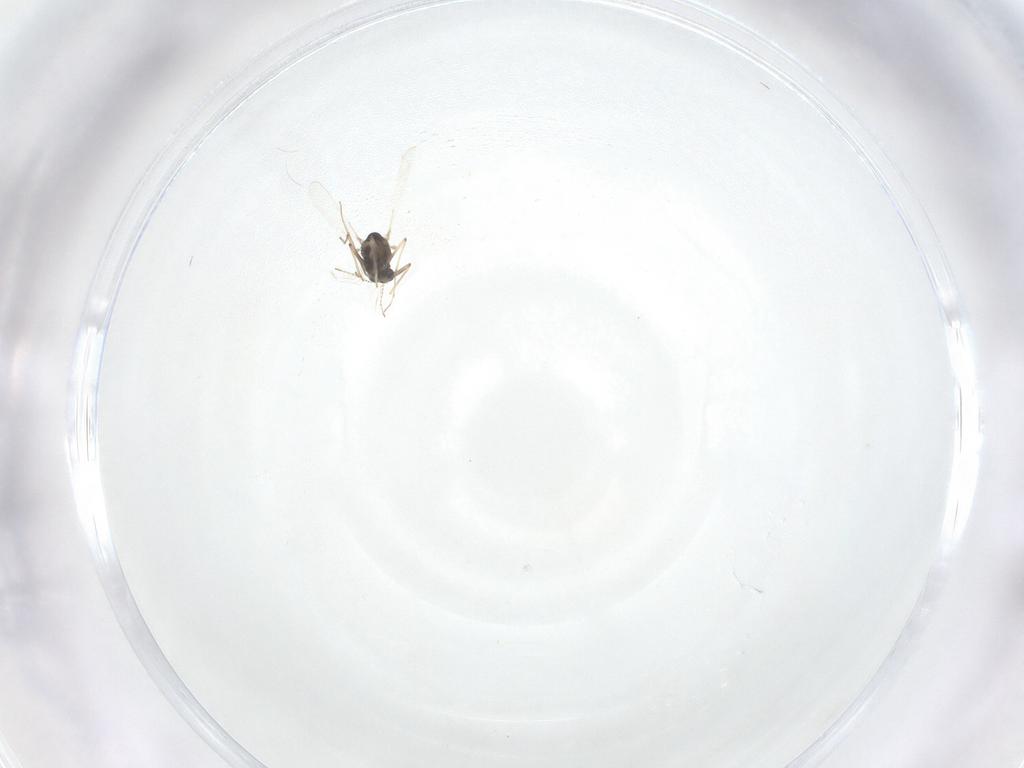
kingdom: Animalia
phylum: Arthropoda
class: Insecta
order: Diptera
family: Chironomidae
